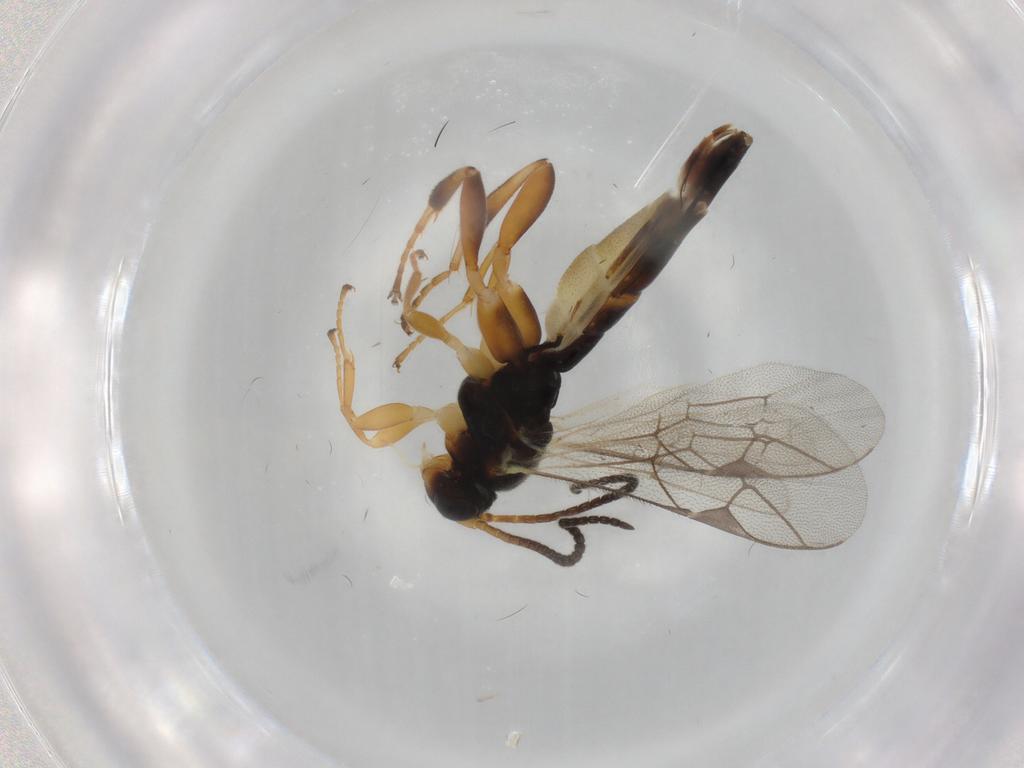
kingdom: Animalia
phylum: Arthropoda
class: Insecta
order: Hymenoptera
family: Ichneumonidae
